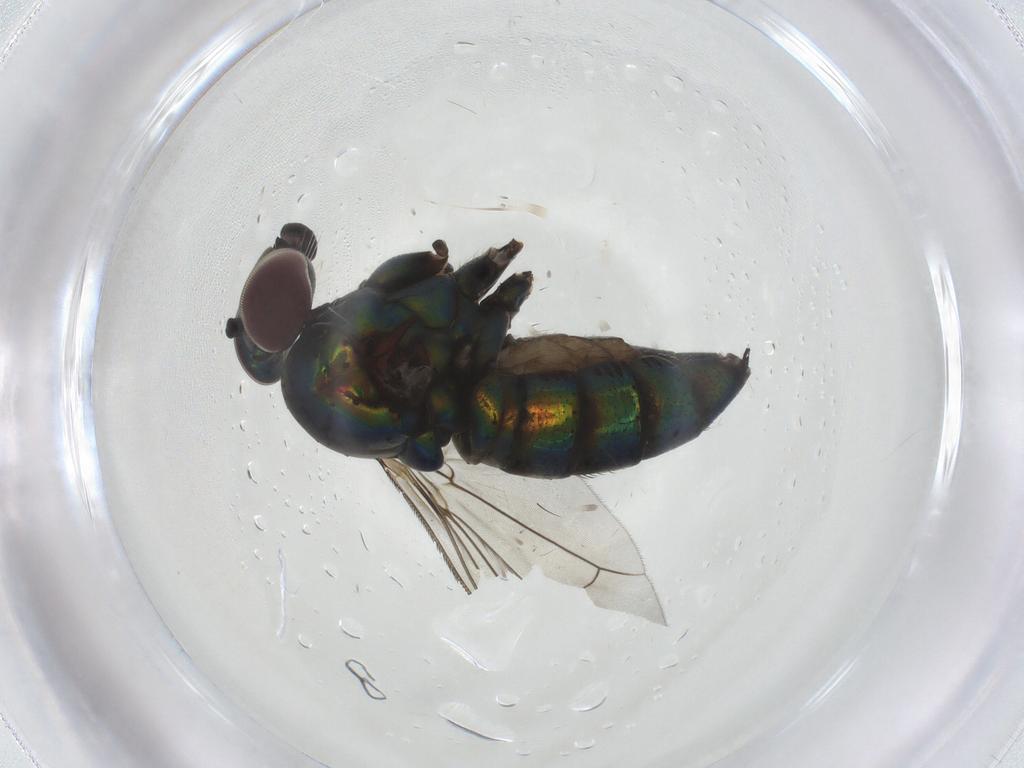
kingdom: Animalia
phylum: Arthropoda
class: Insecta
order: Diptera
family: Dolichopodidae
